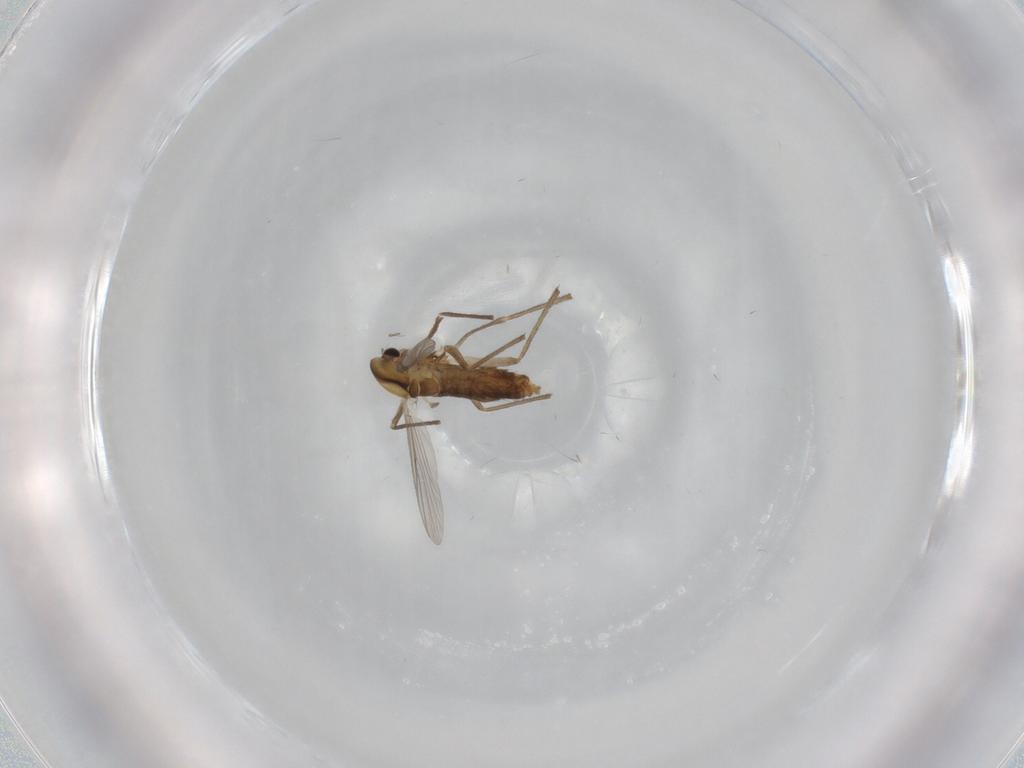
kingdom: Animalia
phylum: Arthropoda
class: Insecta
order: Diptera
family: Chironomidae
